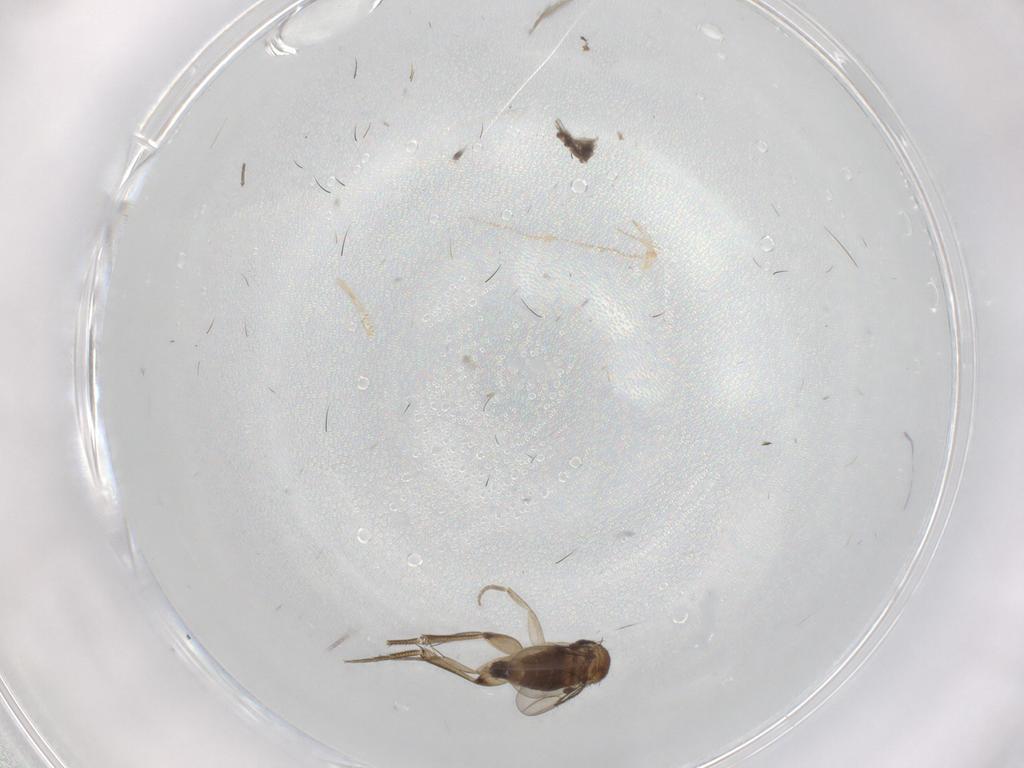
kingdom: Animalia
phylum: Arthropoda
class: Insecta
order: Diptera
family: Phoridae
